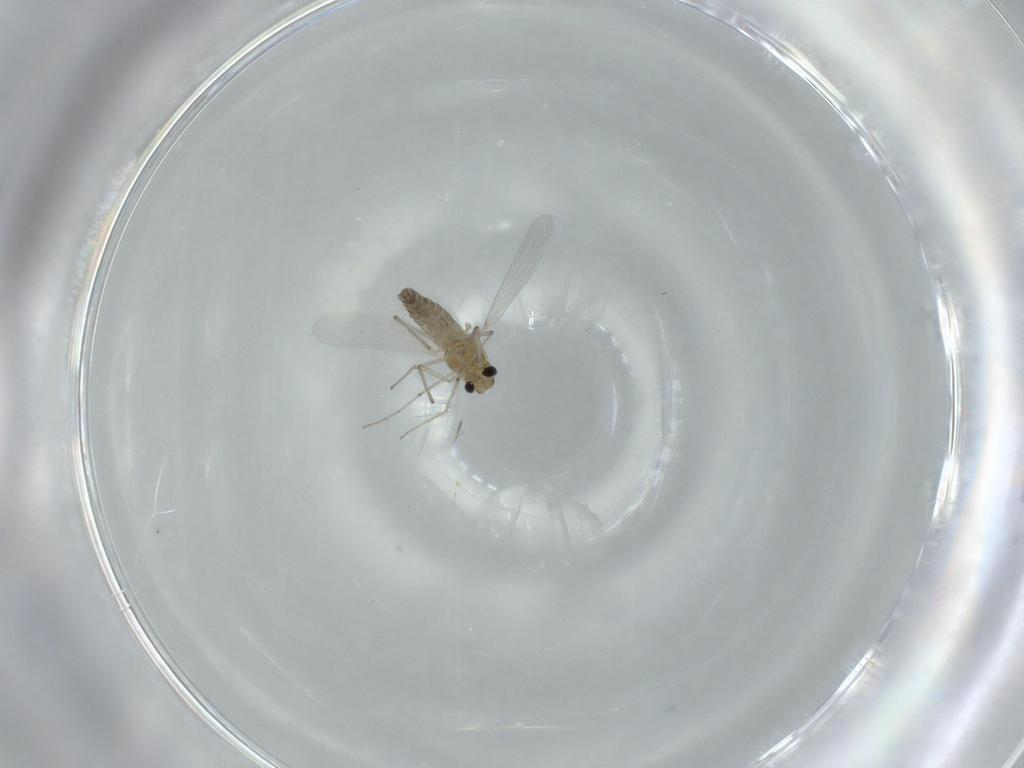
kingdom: Animalia
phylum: Arthropoda
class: Insecta
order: Diptera
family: Chironomidae
